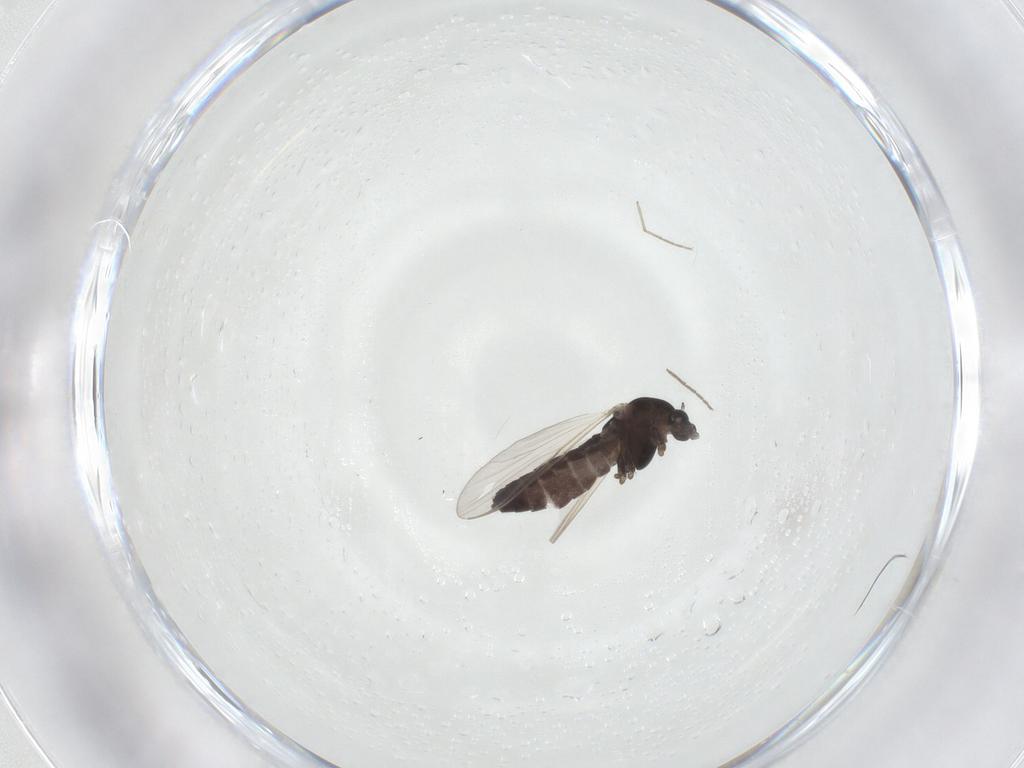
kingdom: Animalia
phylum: Arthropoda
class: Insecta
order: Diptera
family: Chironomidae
